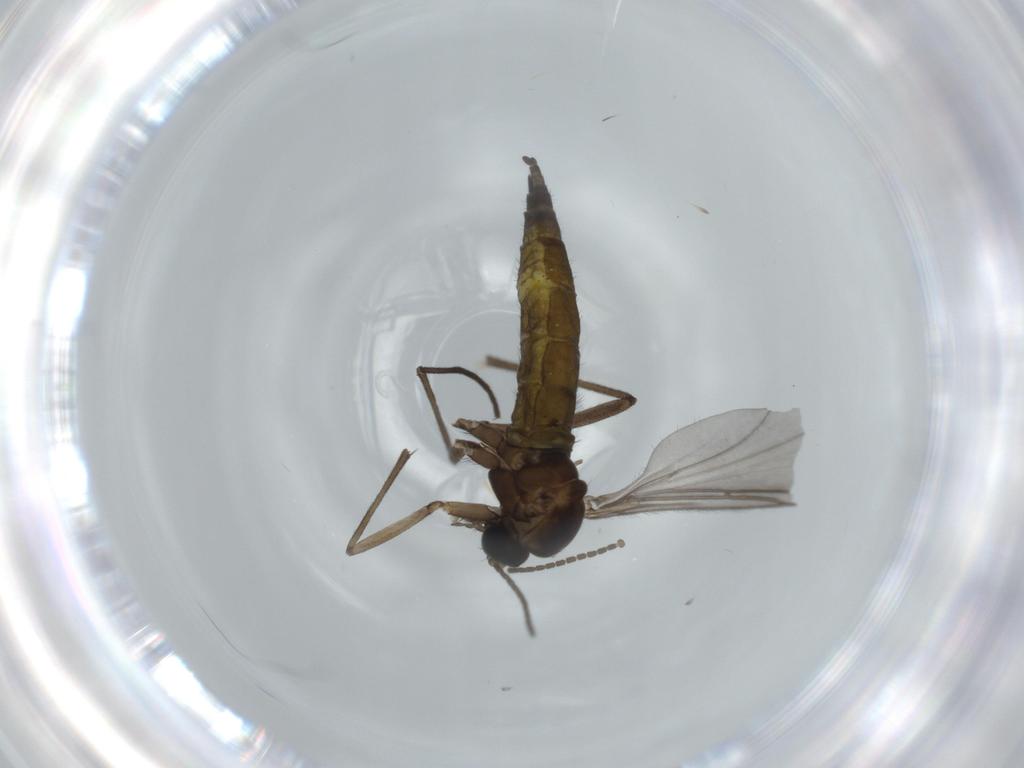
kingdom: Animalia
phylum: Arthropoda
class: Insecta
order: Diptera
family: Sciaridae
